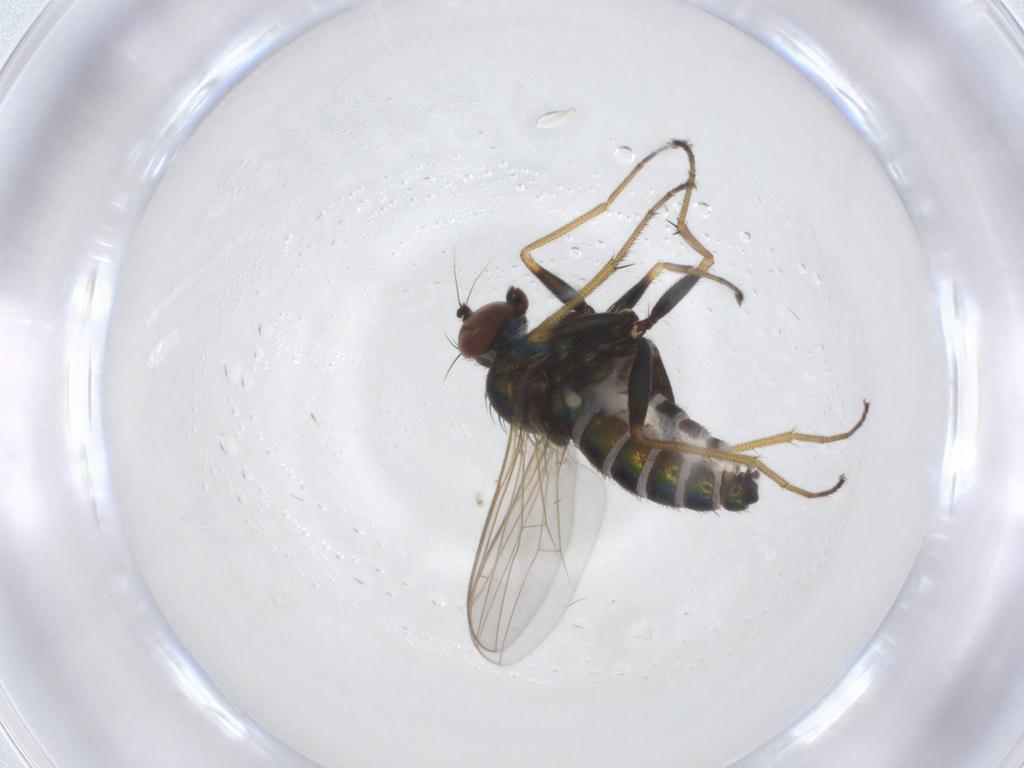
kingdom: Animalia
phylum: Arthropoda
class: Insecta
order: Diptera
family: Dolichopodidae
